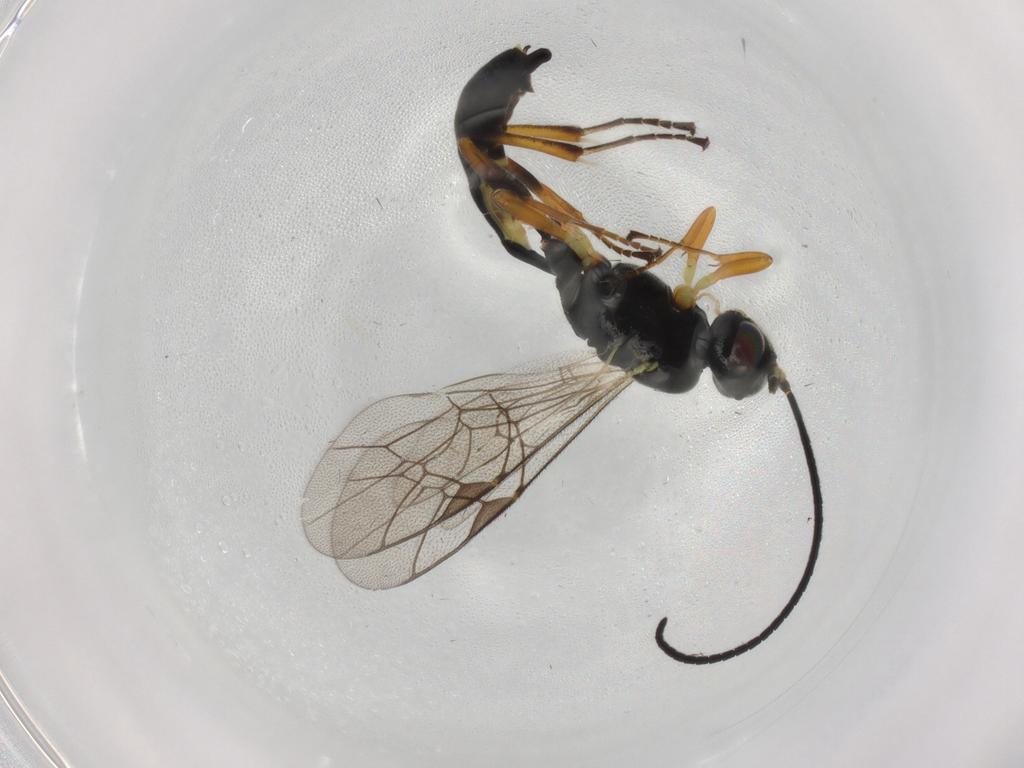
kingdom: Animalia
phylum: Arthropoda
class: Insecta
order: Hymenoptera
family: Ichneumonidae
